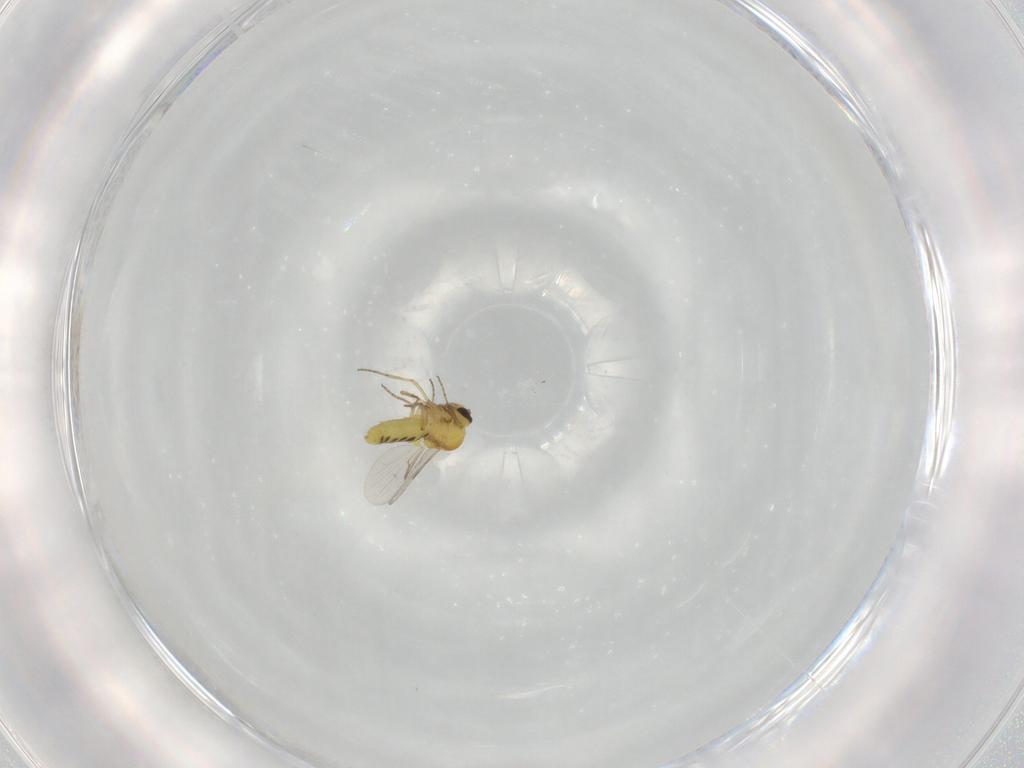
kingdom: Animalia
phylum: Arthropoda
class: Insecta
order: Diptera
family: Ceratopogonidae
